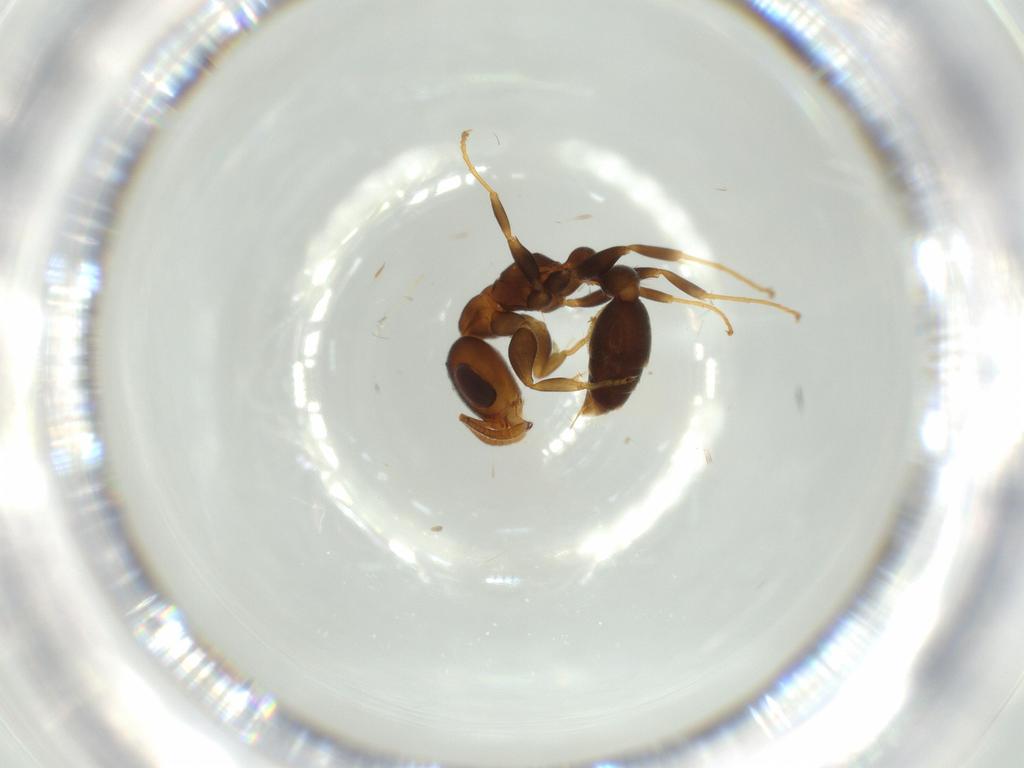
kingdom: Animalia
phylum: Arthropoda
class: Insecta
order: Hymenoptera
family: Formicidae
